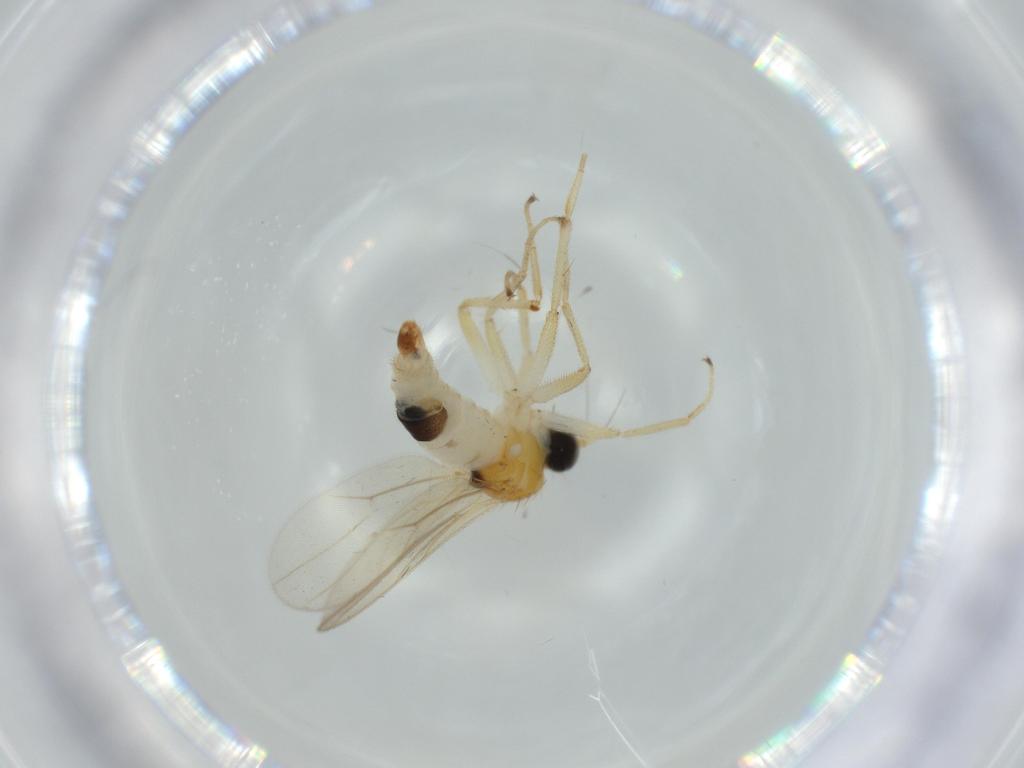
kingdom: Animalia
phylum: Arthropoda
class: Insecta
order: Diptera
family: Hybotidae
